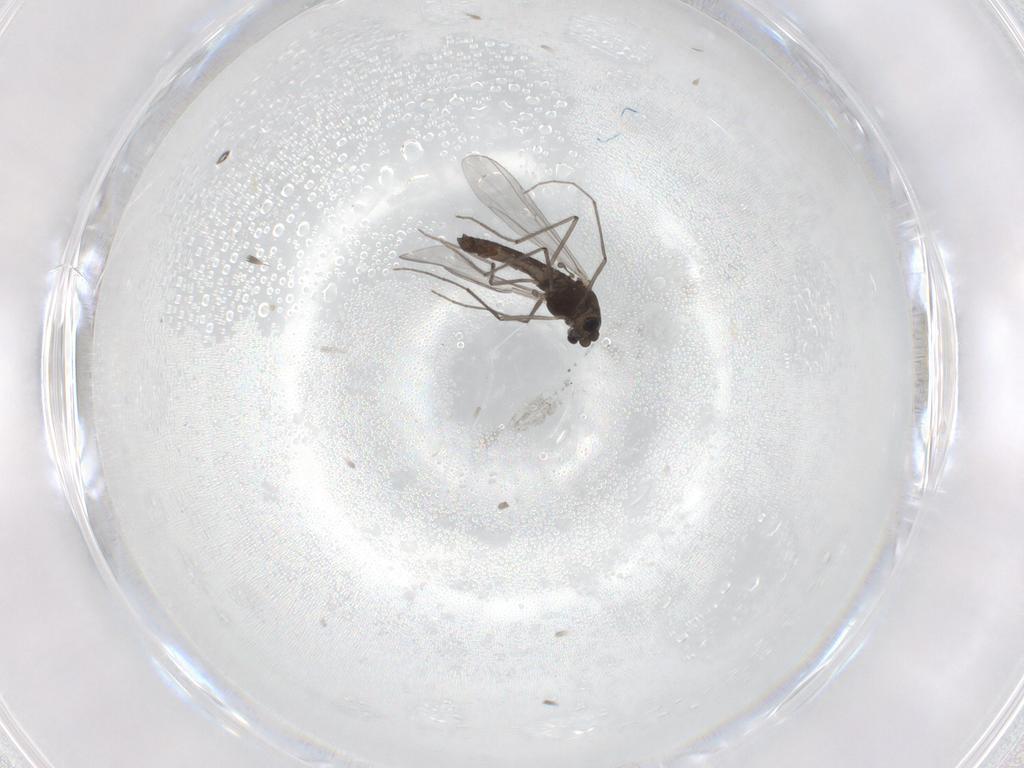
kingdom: Animalia
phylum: Arthropoda
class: Insecta
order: Diptera
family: Chironomidae
